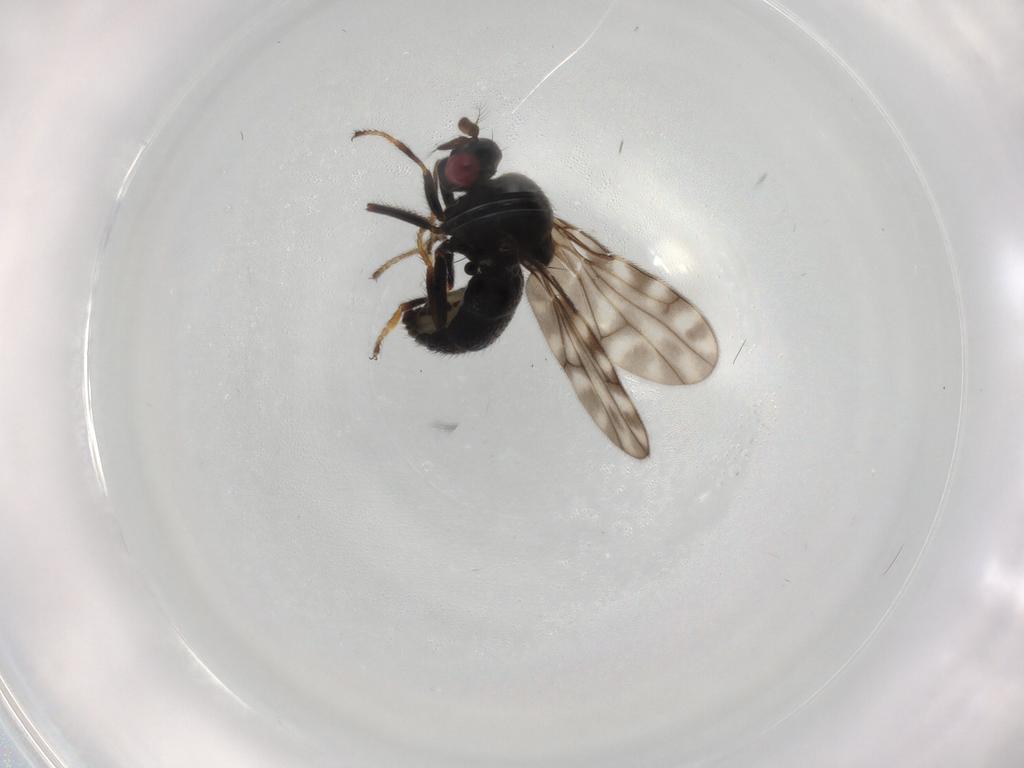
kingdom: Animalia
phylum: Arthropoda
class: Insecta
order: Diptera
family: Ephydridae
